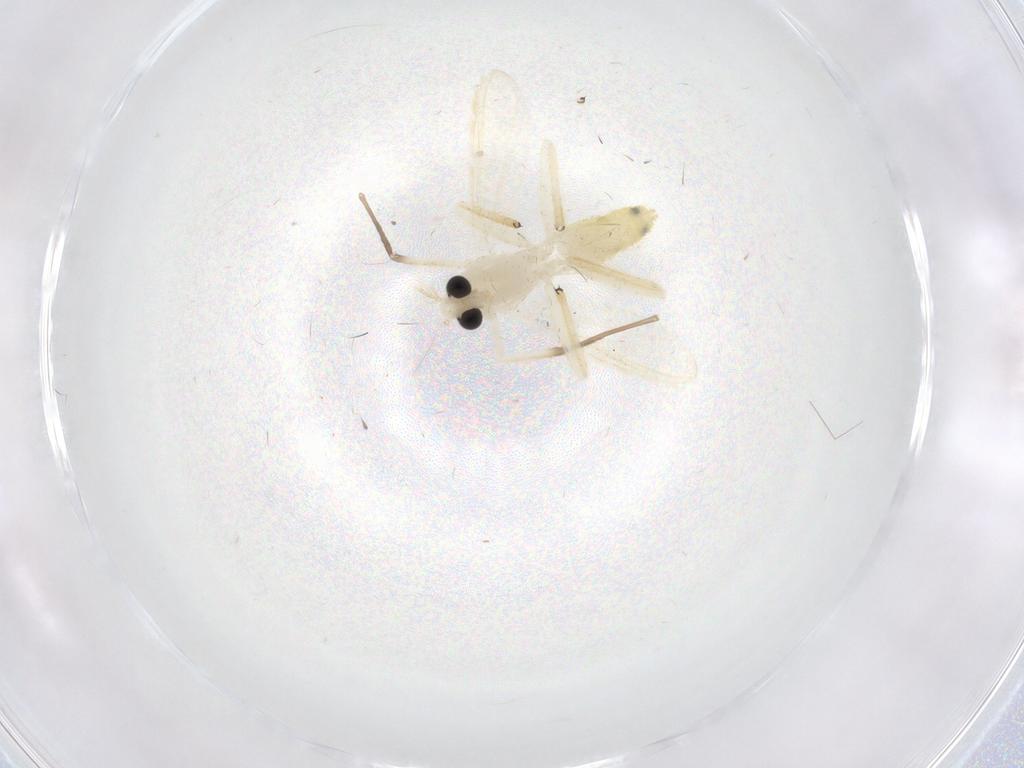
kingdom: Animalia
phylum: Arthropoda
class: Insecta
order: Diptera
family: Chironomidae
